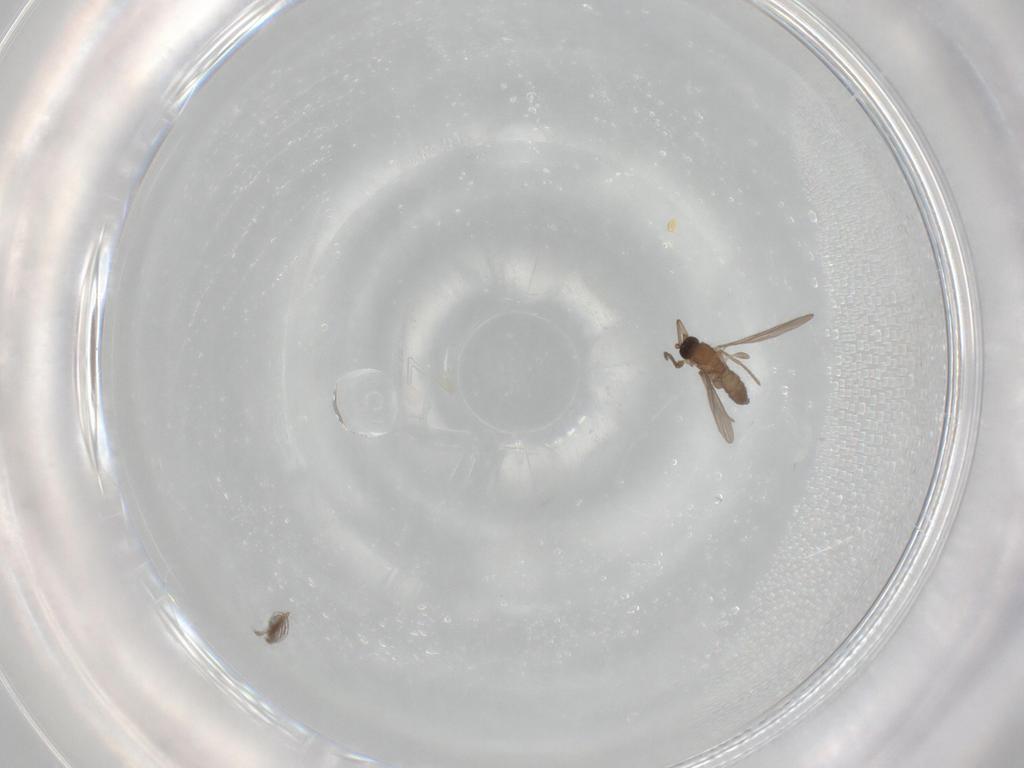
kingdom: Animalia
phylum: Arthropoda
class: Insecta
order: Diptera
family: Ceratopogonidae
